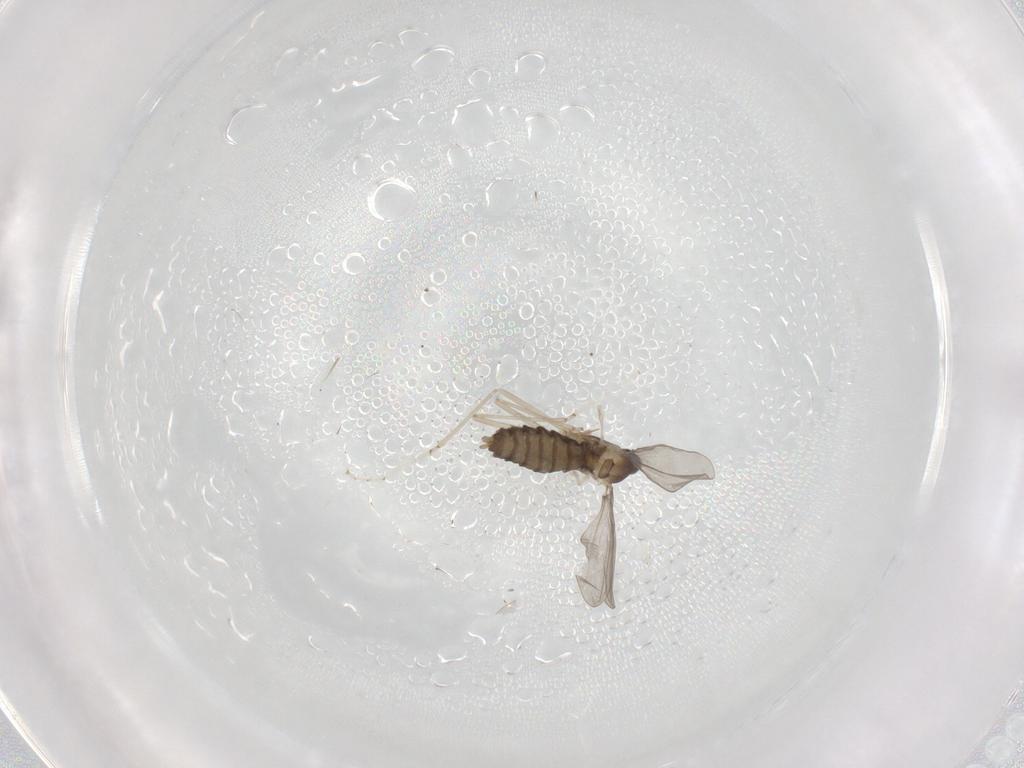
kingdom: Animalia
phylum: Arthropoda
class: Insecta
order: Diptera
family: Cecidomyiidae
